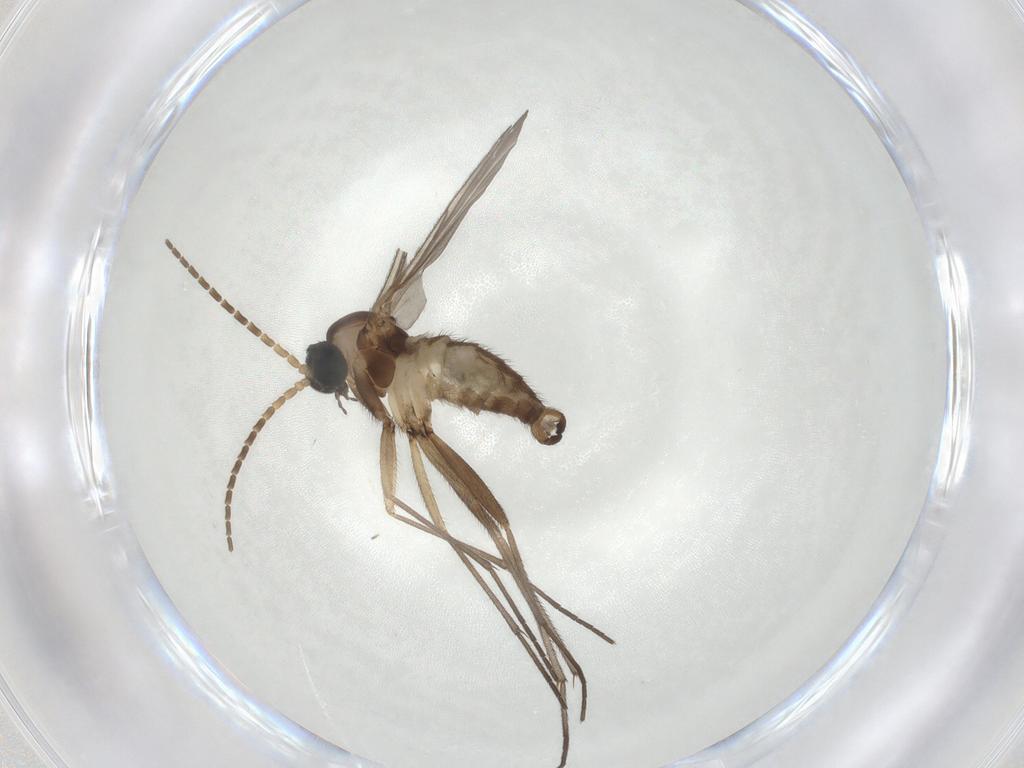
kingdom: Animalia
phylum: Arthropoda
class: Insecta
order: Diptera
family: Sciaridae
